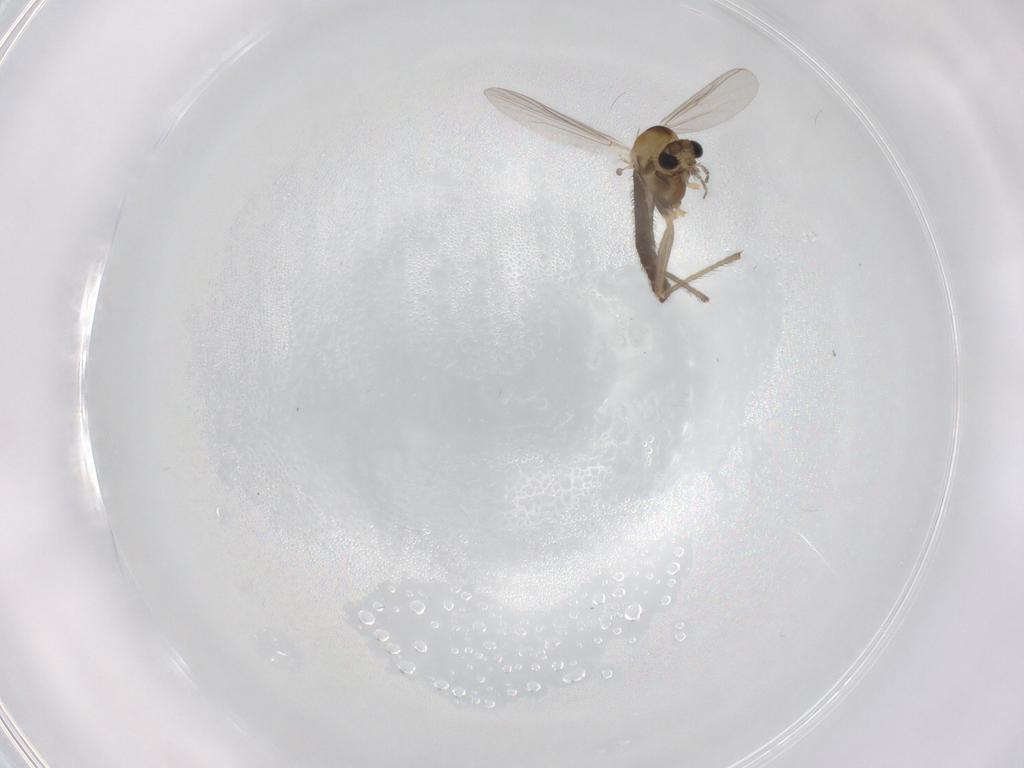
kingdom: Animalia
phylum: Arthropoda
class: Insecta
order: Diptera
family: Chironomidae
